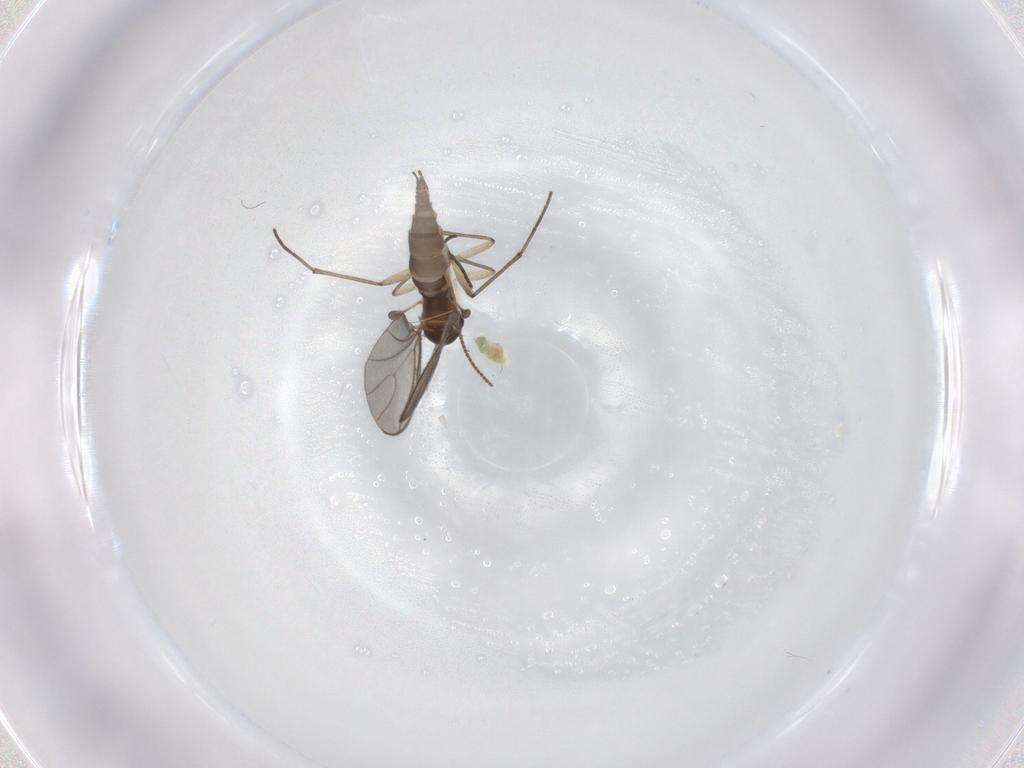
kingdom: Animalia
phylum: Arthropoda
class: Insecta
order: Diptera
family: Sciaridae
